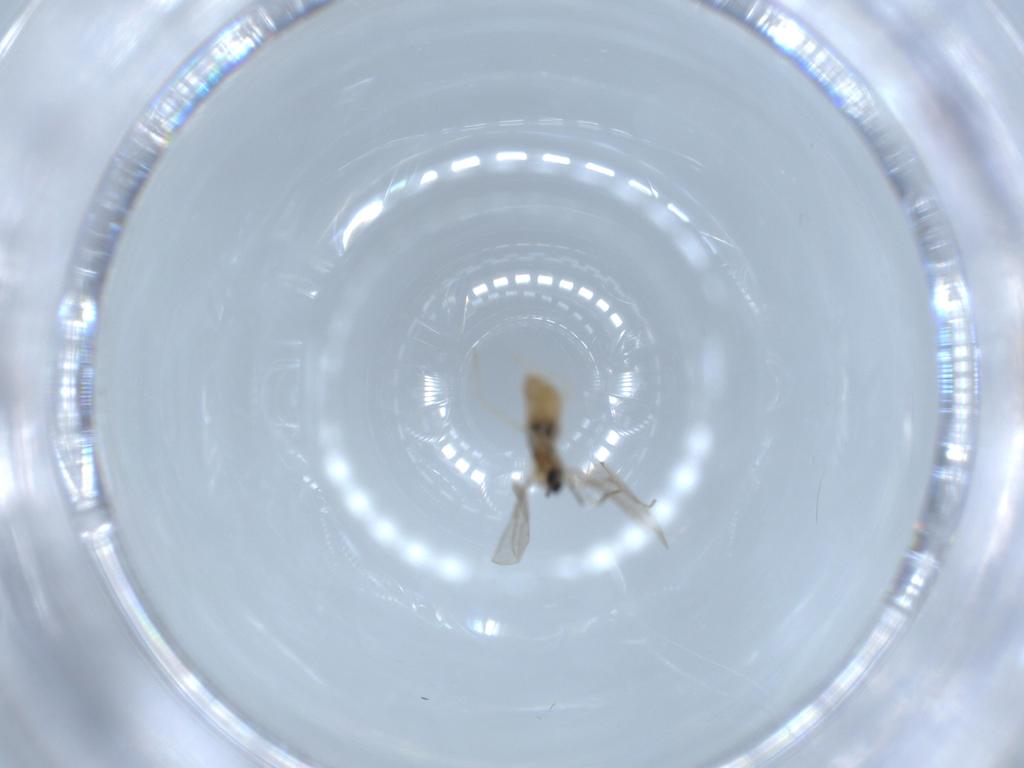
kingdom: Animalia
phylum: Arthropoda
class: Insecta
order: Diptera
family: Cecidomyiidae
